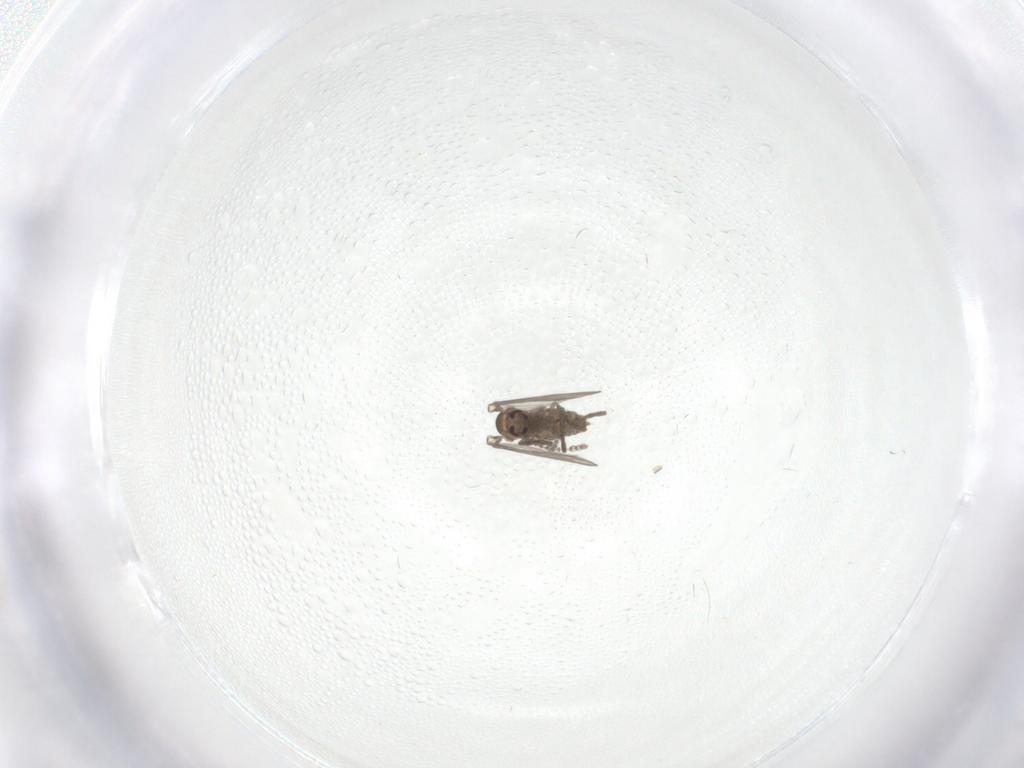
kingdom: Animalia
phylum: Arthropoda
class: Insecta
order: Diptera
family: Psychodidae
